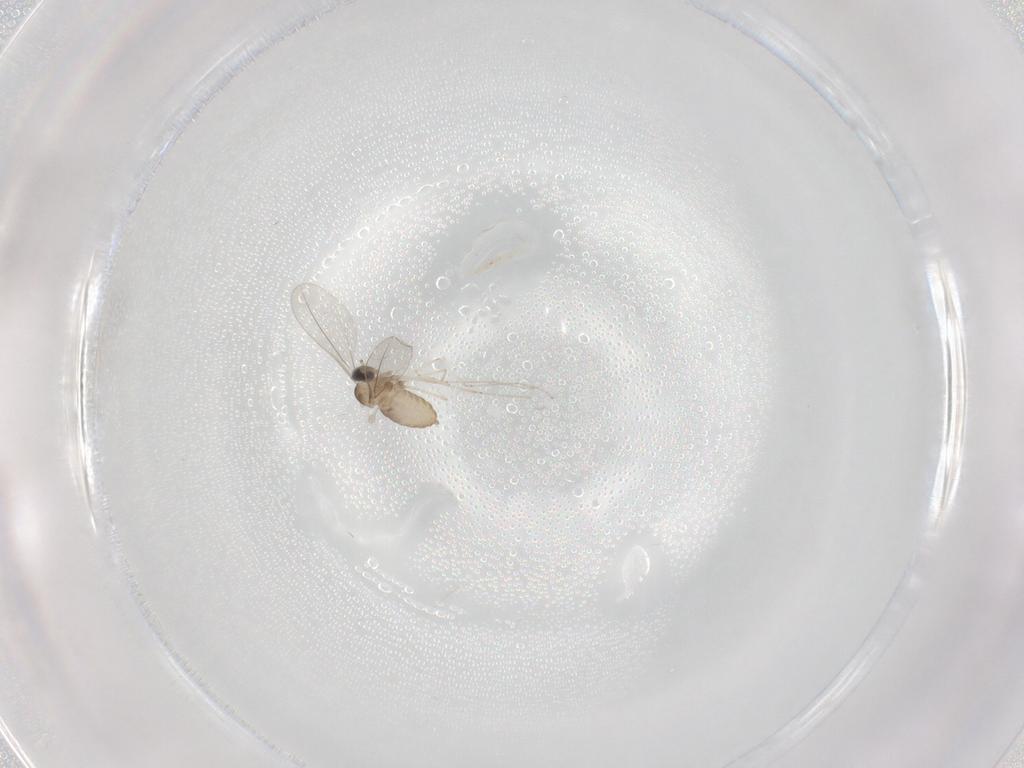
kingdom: Animalia
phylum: Arthropoda
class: Insecta
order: Diptera
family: Cecidomyiidae
